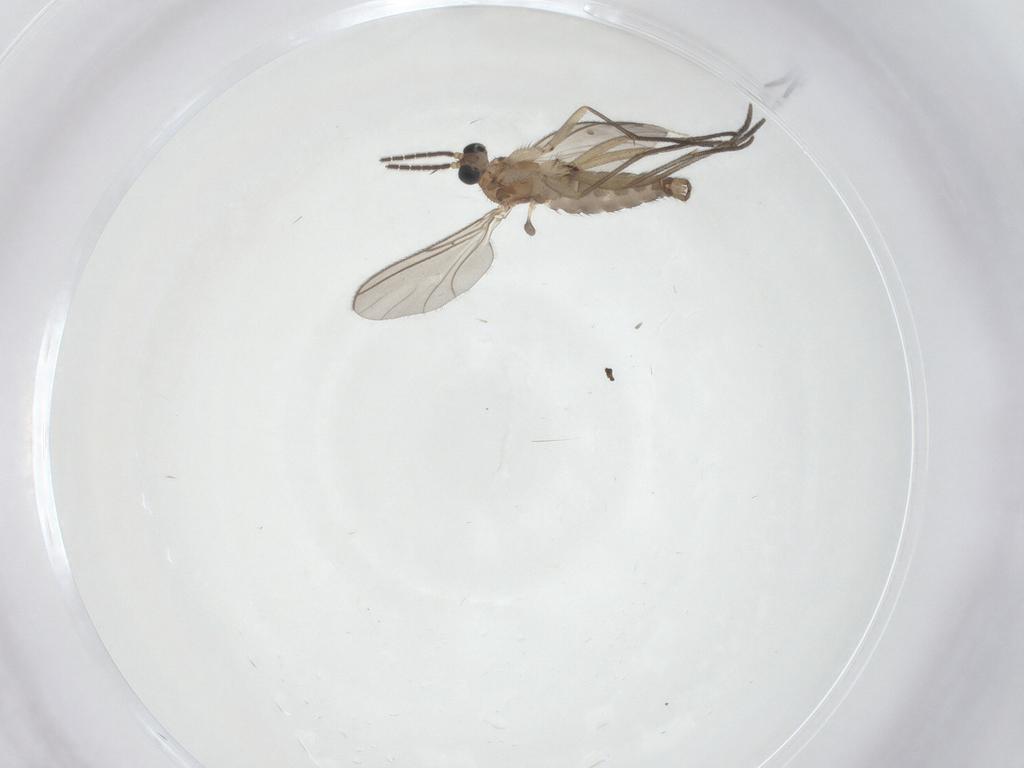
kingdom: Animalia
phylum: Arthropoda
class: Insecta
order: Diptera
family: Sciaridae
